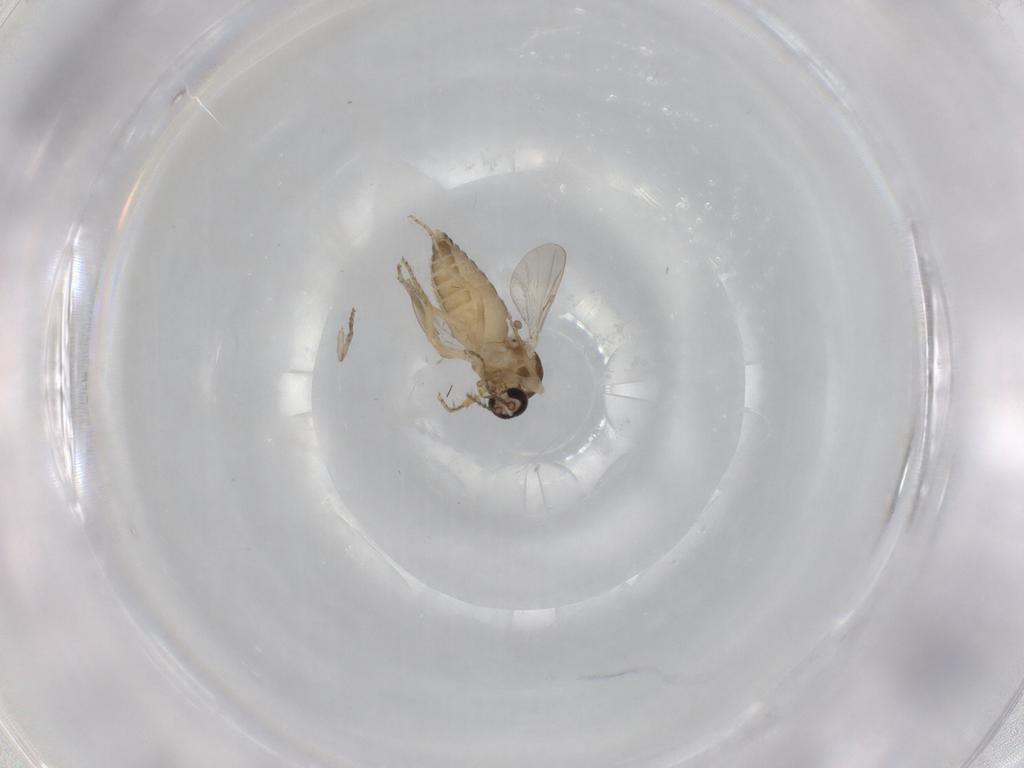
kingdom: Animalia
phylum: Arthropoda
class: Insecta
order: Diptera
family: Ceratopogonidae
